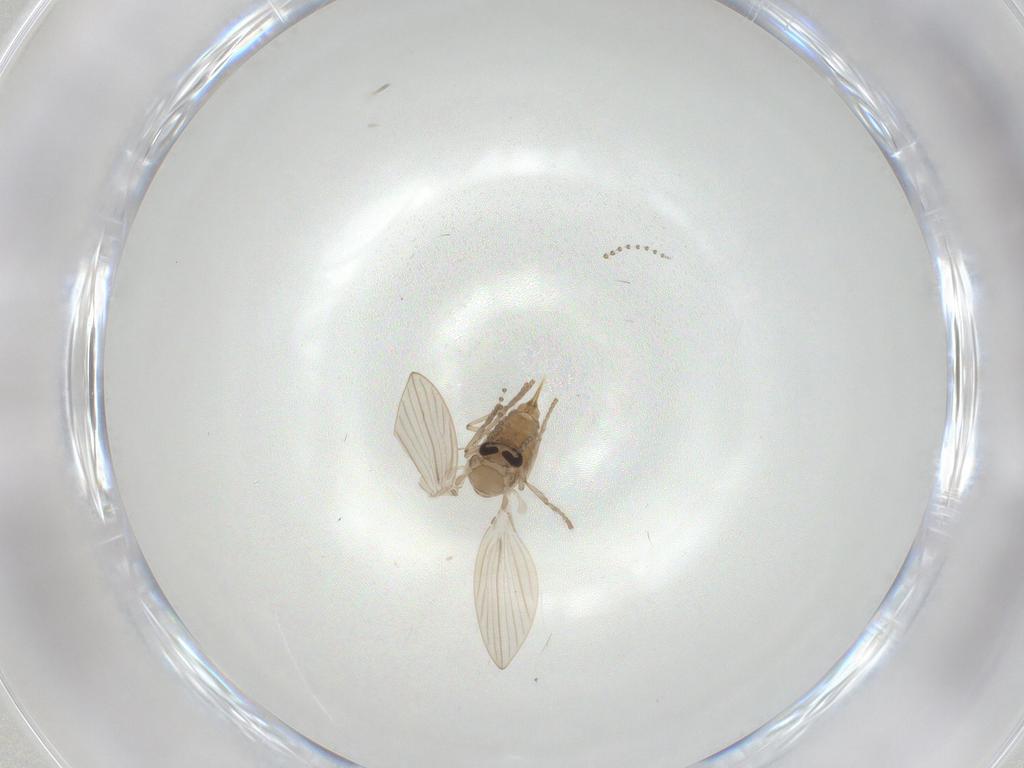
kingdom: Animalia
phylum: Arthropoda
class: Insecta
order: Diptera
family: Psychodidae
